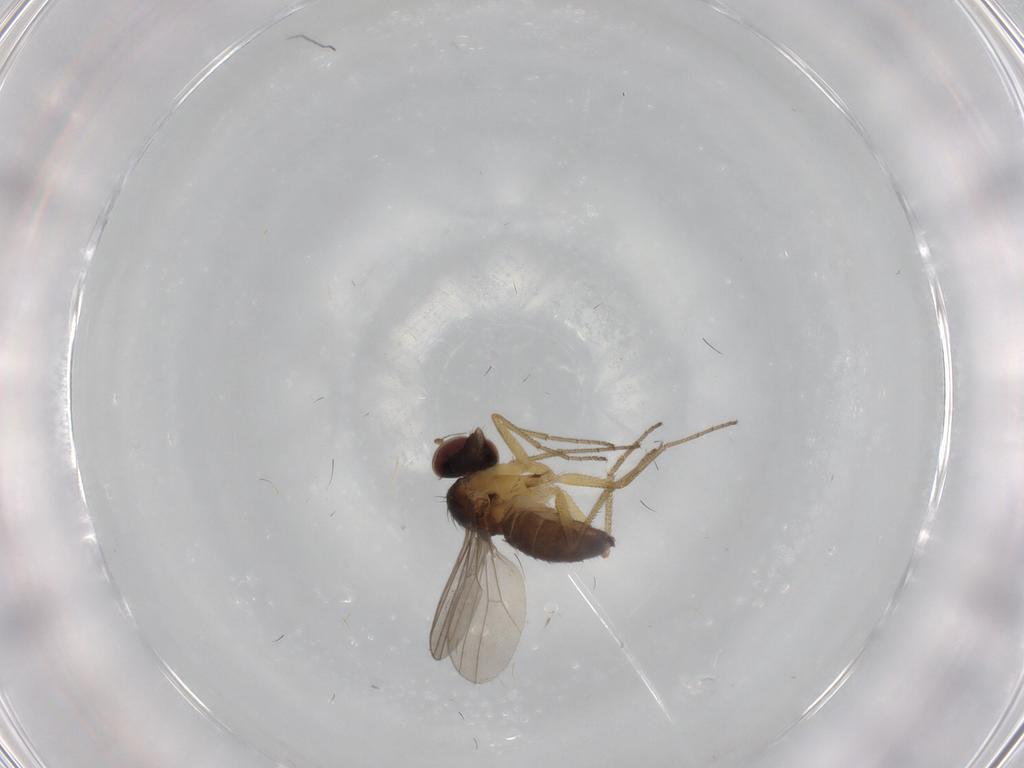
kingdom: Animalia
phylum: Arthropoda
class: Insecta
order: Diptera
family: Dolichopodidae
